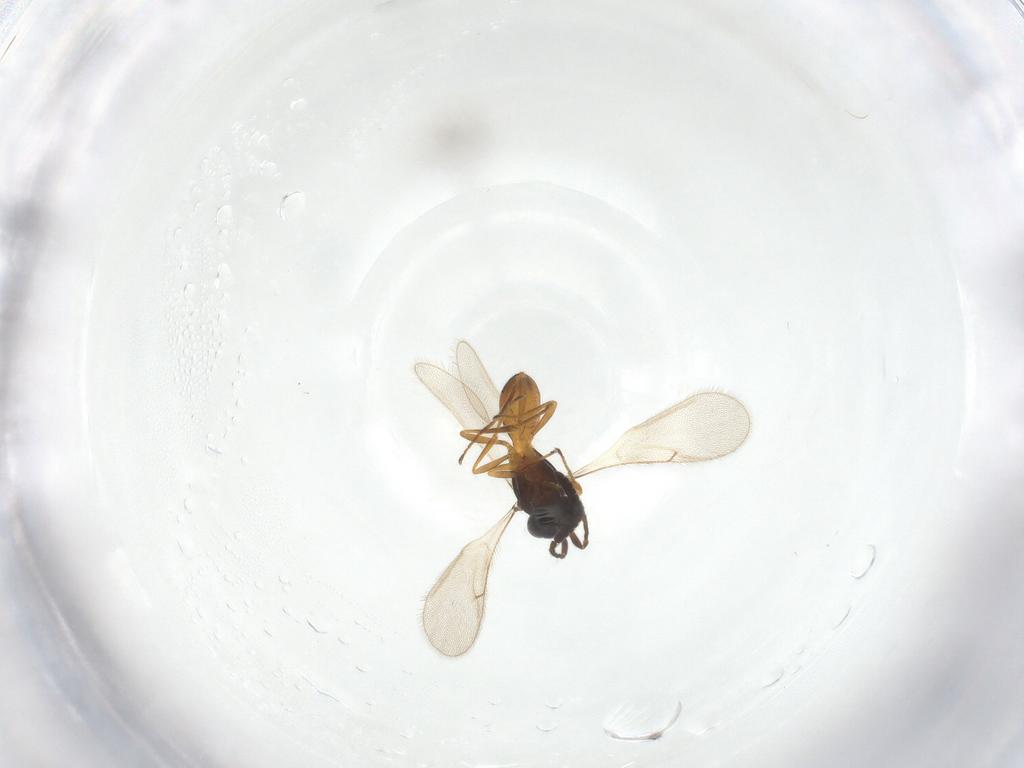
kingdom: Animalia
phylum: Arthropoda
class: Insecta
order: Hymenoptera
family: Scelionidae
